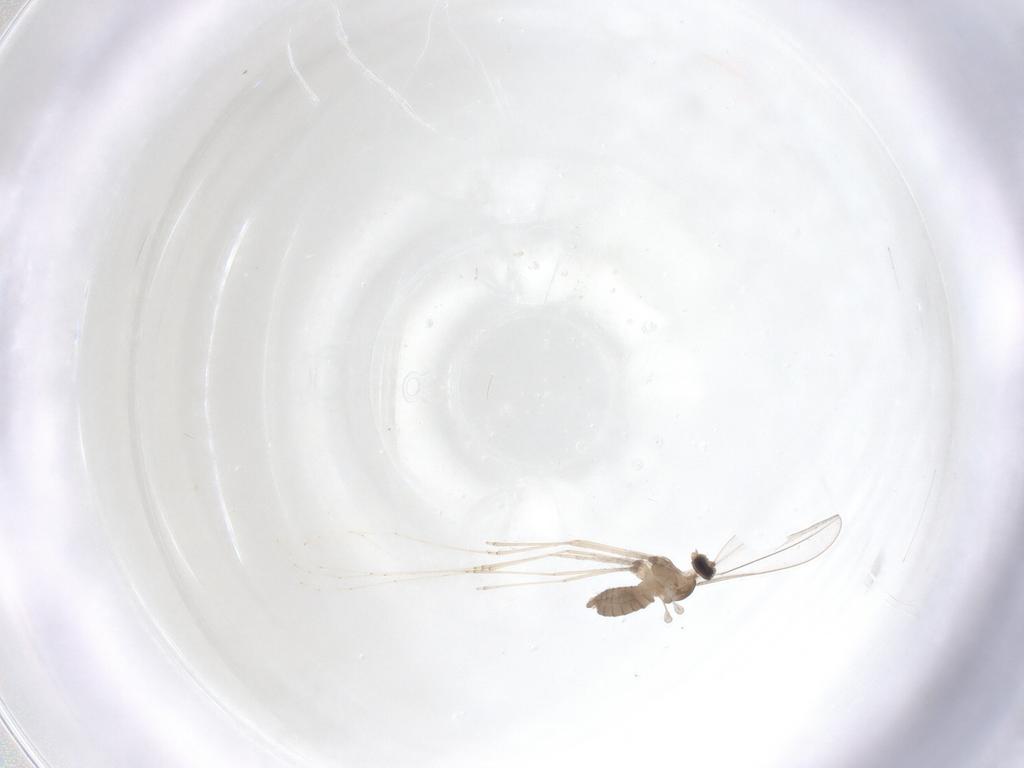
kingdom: Animalia
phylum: Arthropoda
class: Insecta
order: Diptera
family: Cecidomyiidae
